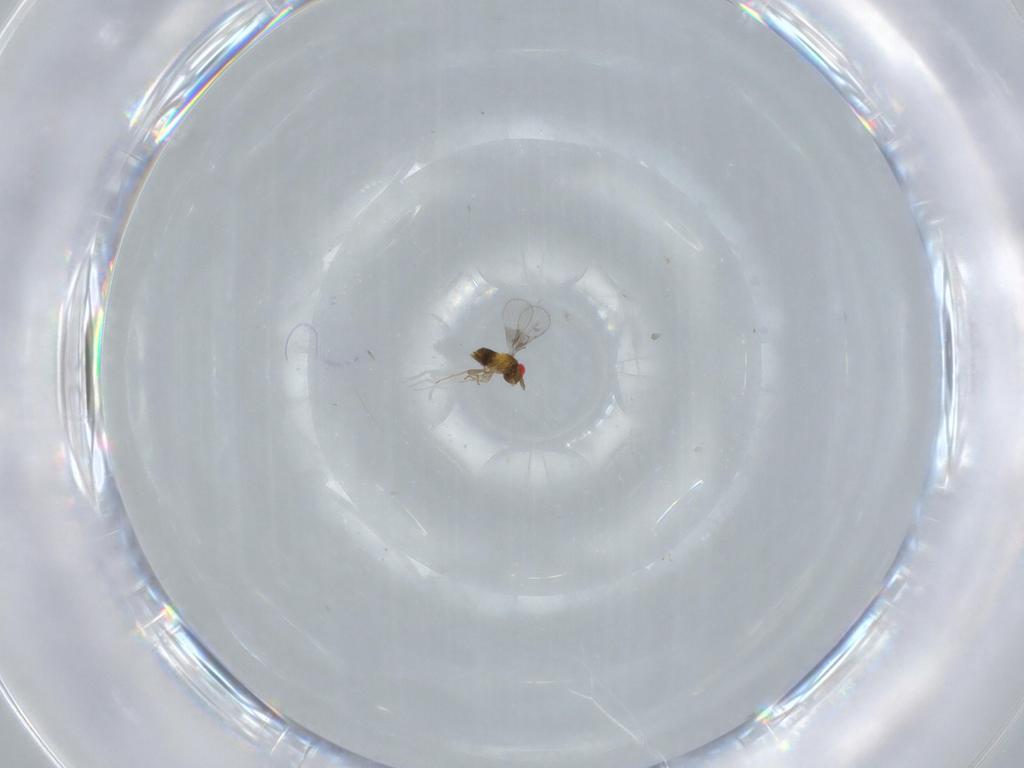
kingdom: Animalia
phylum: Arthropoda
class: Insecta
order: Hymenoptera
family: Trichogrammatidae
